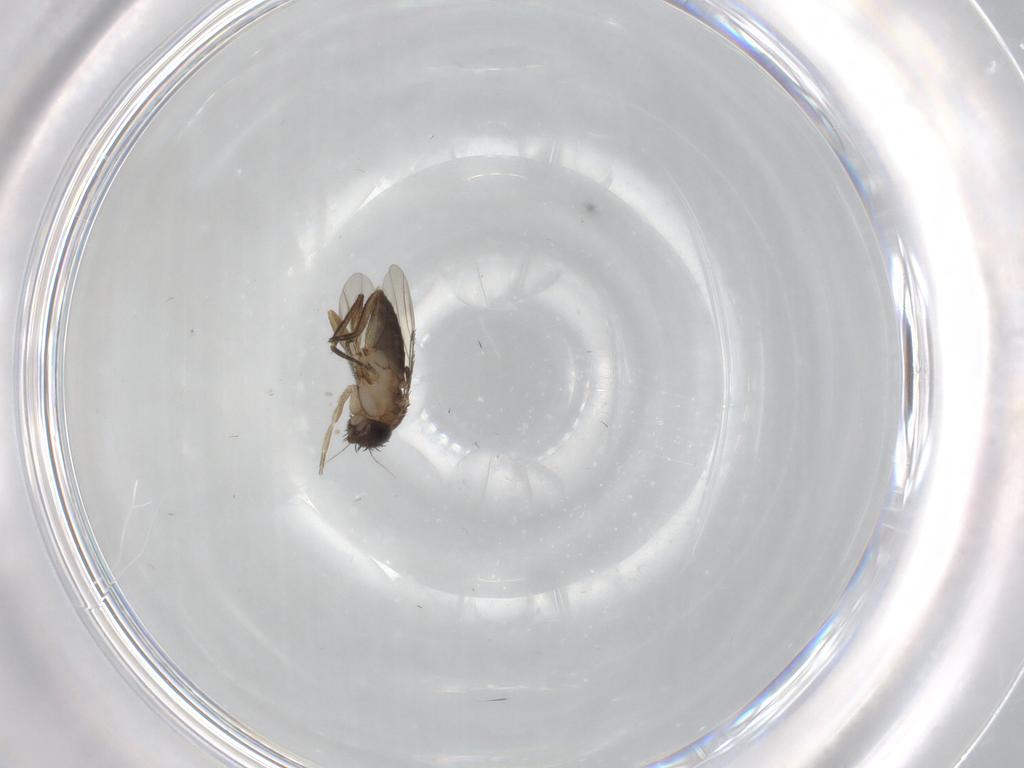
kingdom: Animalia
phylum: Arthropoda
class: Insecta
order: Diptera
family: Phoridae
